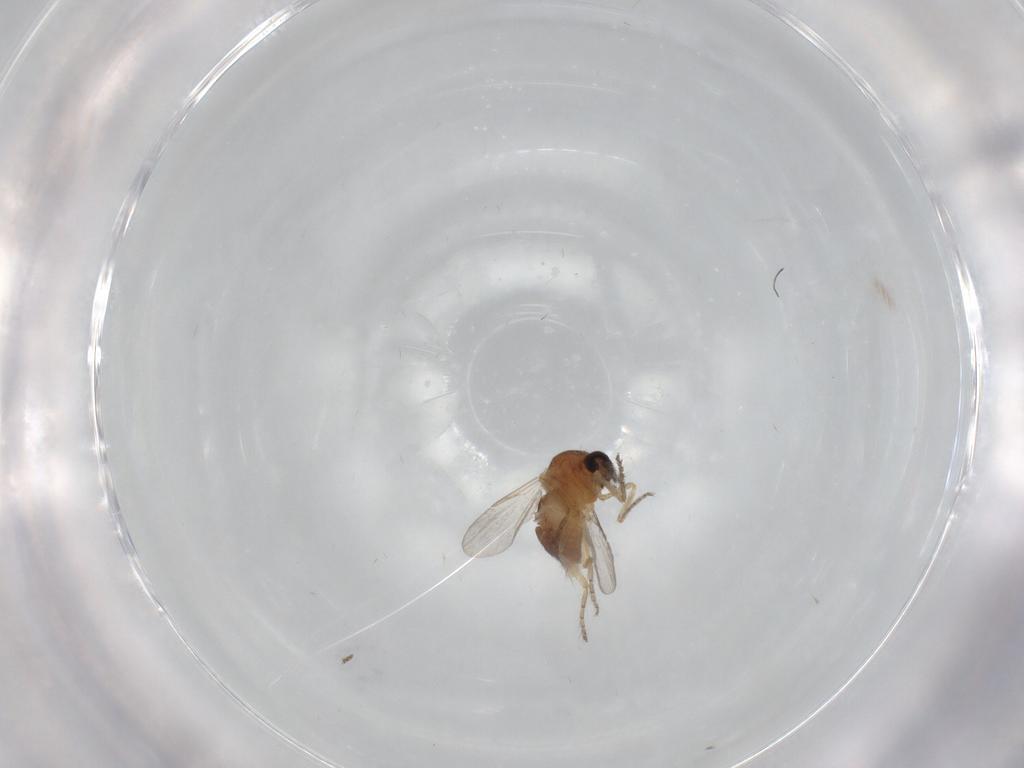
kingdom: Animalia
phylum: Arthropoda
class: Insecta
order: Diptera
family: Ceratopogonidae
